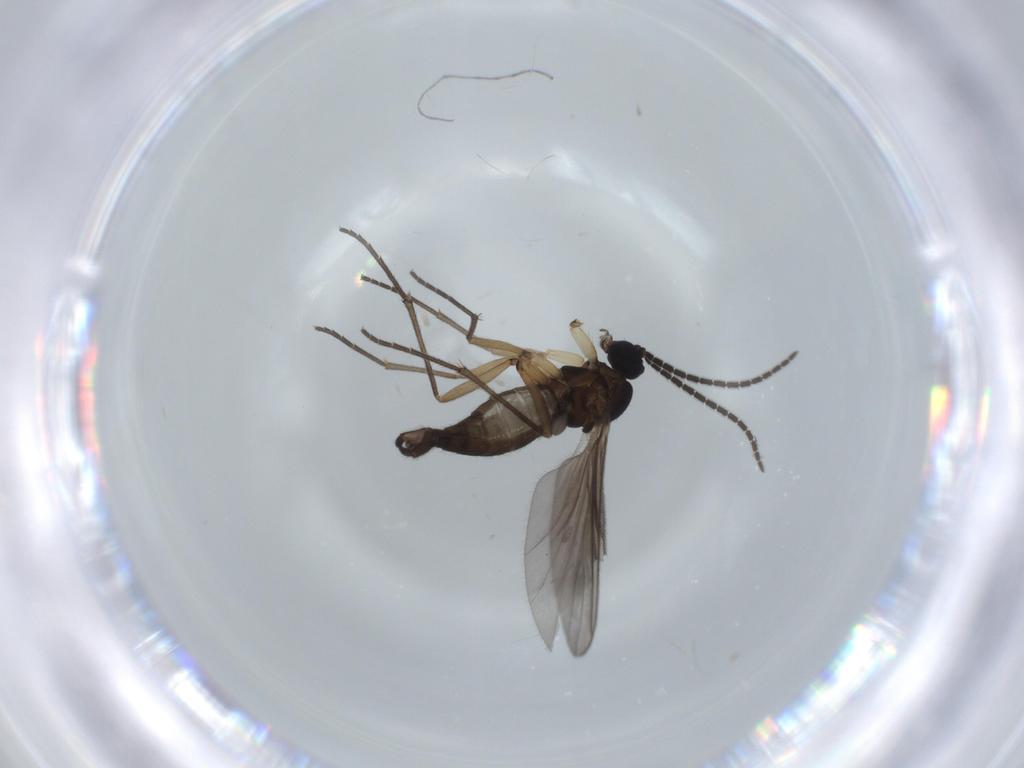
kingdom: Animalia
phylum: Arthropoda
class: Insecta
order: Diptera
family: Sciaridae
